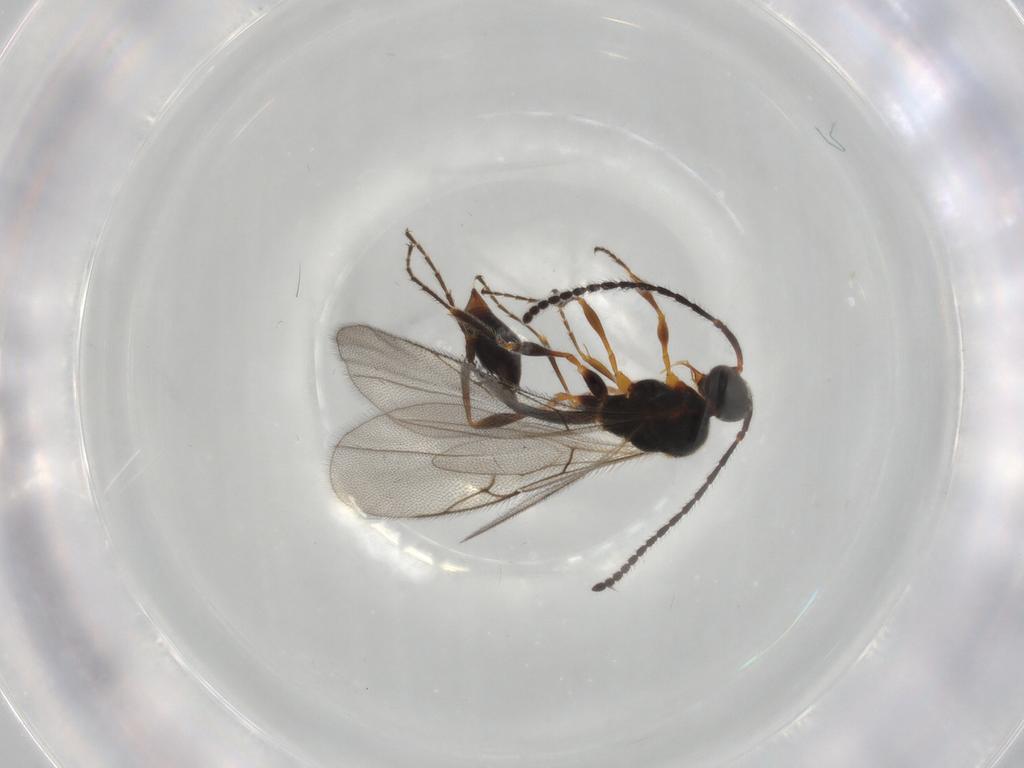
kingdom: Animalia
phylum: Arthropoda
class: Insecta
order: Hymenoptera
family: Diapriidae
